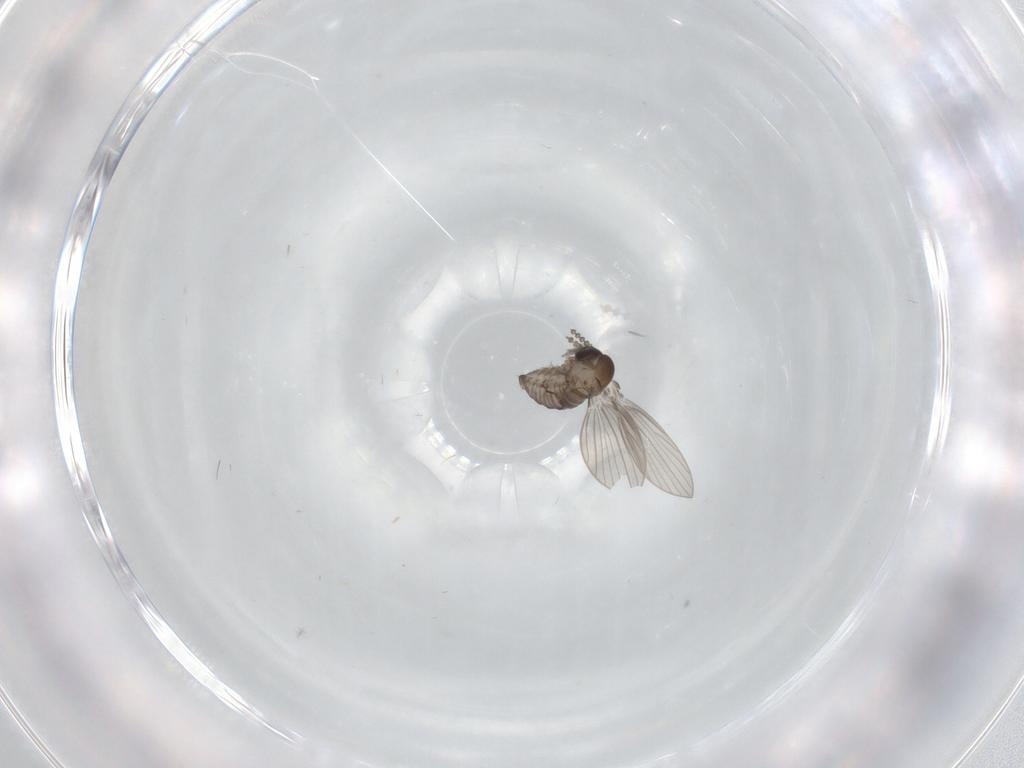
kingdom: Animalia
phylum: Arthropoda
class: Insecta
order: Diptera
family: Psychodidae
